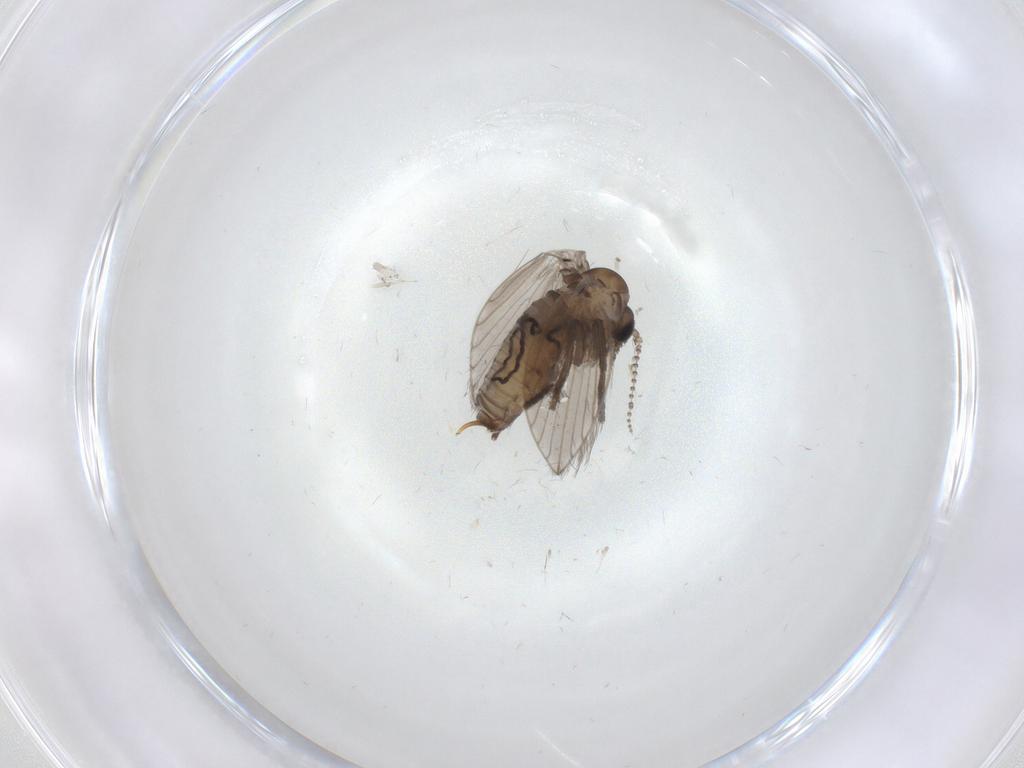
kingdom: Animalia
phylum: Arthropoda
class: Insecta
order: Diptera
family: Psychodidae
